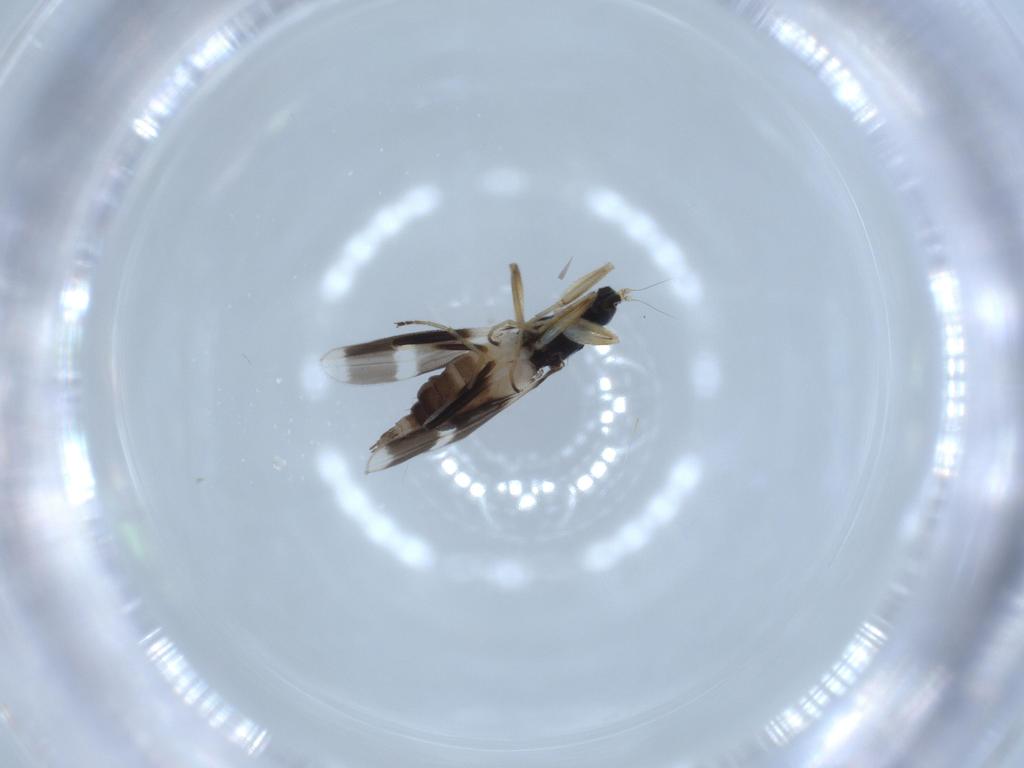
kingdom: Animalia
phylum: Arthropoda
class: Insecta
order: Diptera
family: Hybotidae
